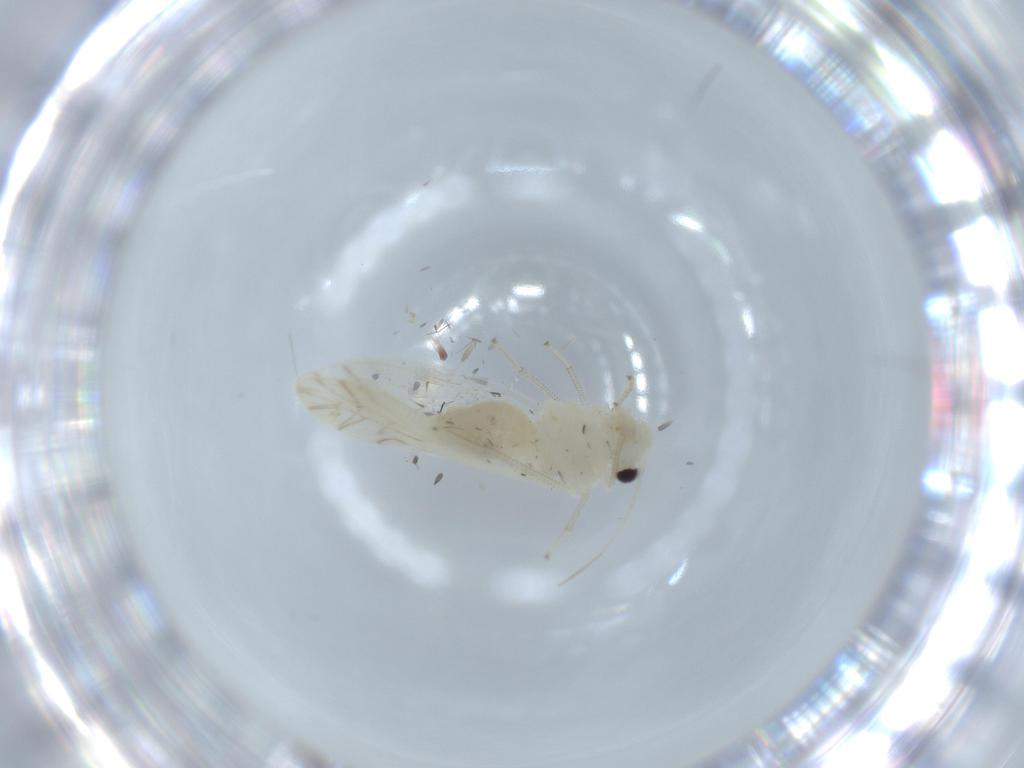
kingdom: Animalia
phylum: Arthropoda
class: Insecta
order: Psocodea
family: Caeciliusidae
